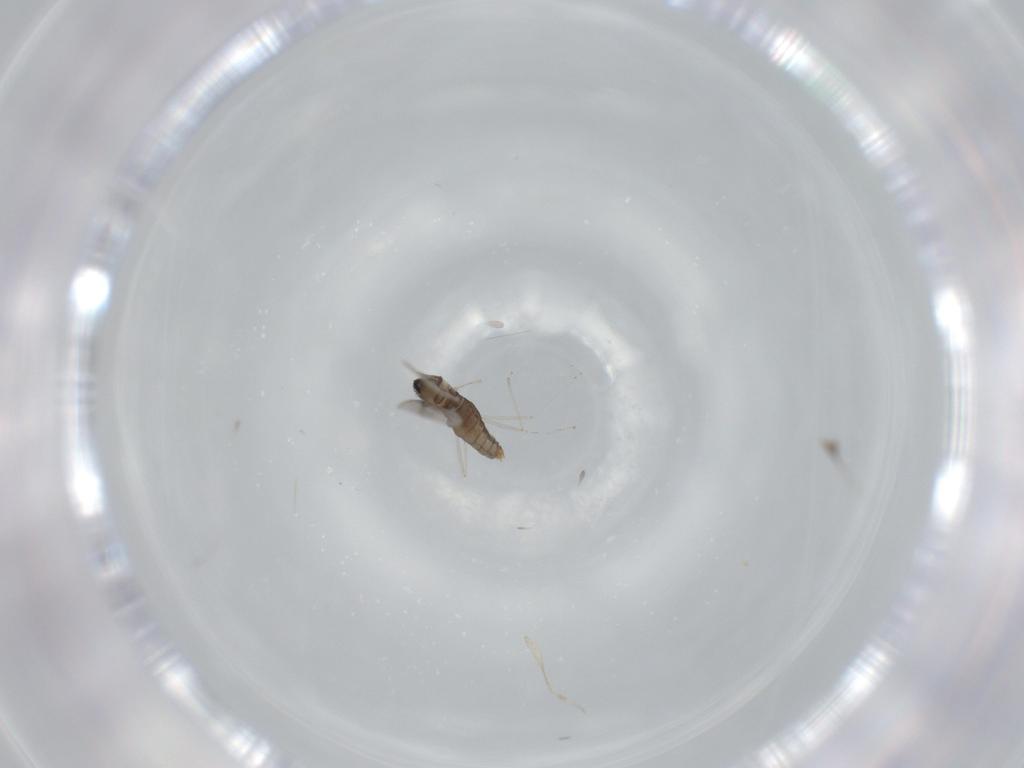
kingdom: Animalia
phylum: Arthropoda
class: Insecta
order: Diptera
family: Cecidomyiidae
